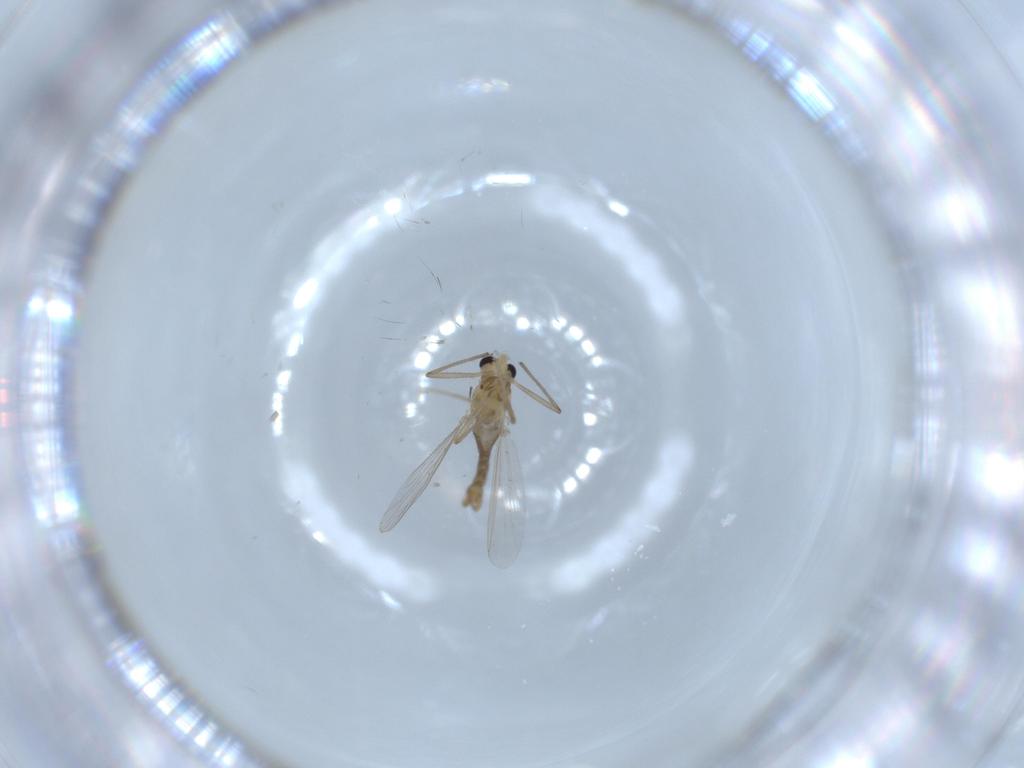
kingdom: Animalia
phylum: Arthropoda
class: Insecta
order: Diptera
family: Chironomidae
